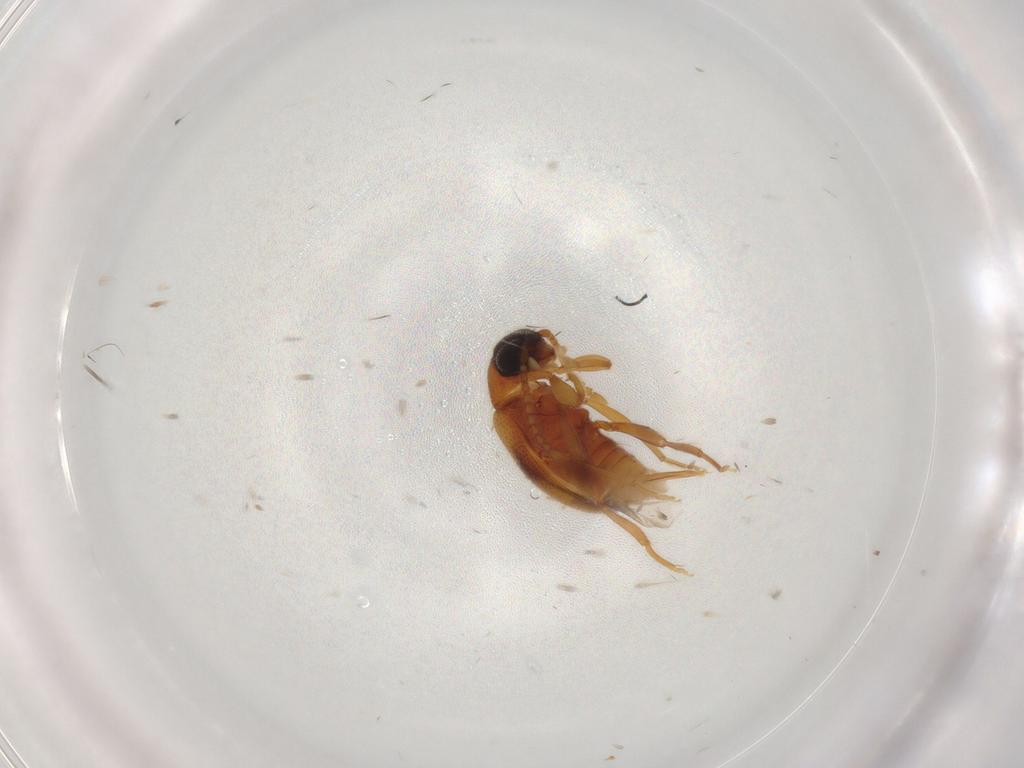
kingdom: Animalia
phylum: Arthropoda
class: Insecta
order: Coleoptera
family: Aderidae
